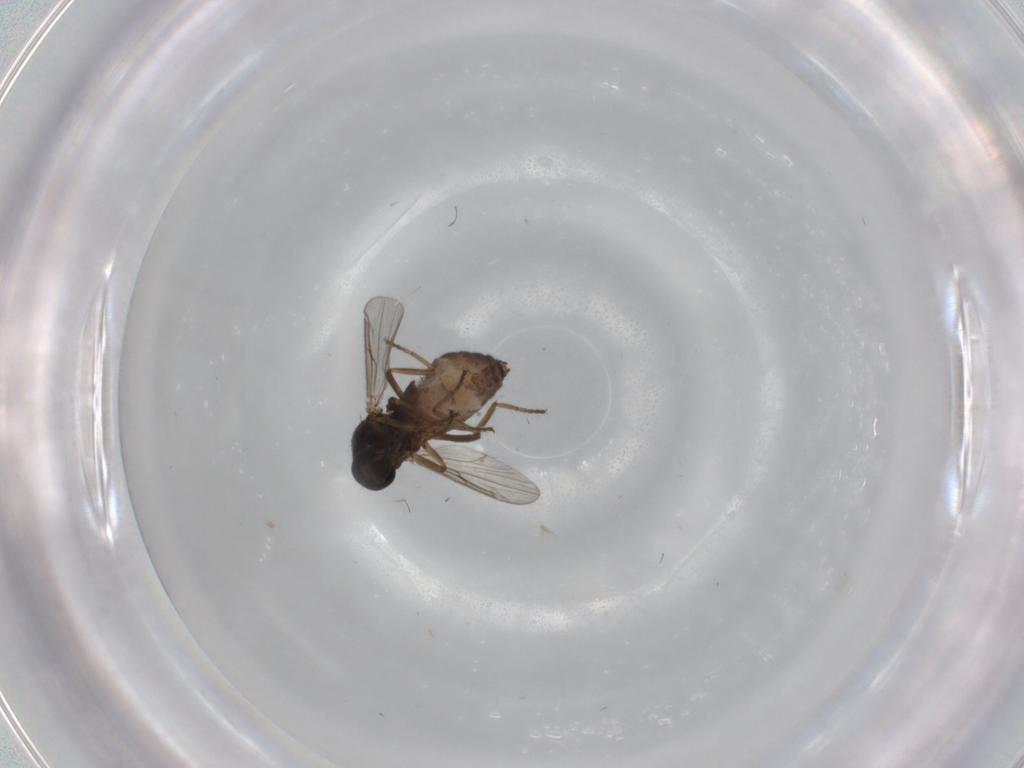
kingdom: Animalia
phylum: Arthropoda
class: Insecta
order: Diptera
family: Ceratopogonidae
